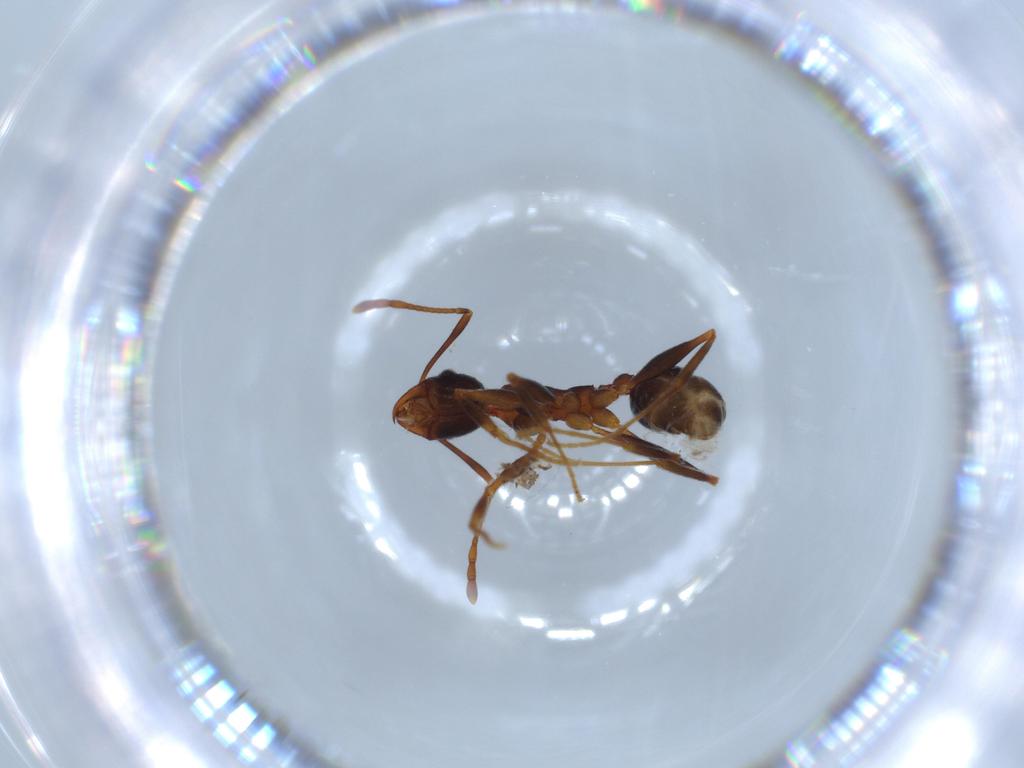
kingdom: Animalia
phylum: Arthropoda
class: Insecta
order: Hymenoptera
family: Formicidae
